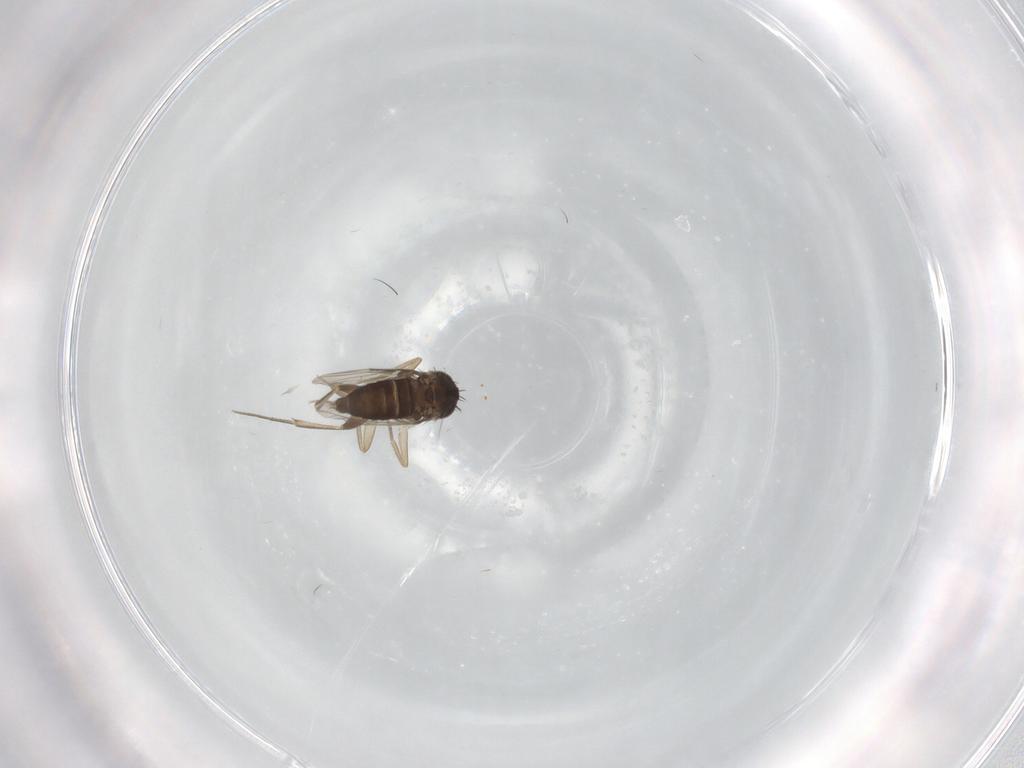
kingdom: Animalia
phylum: Arthropoda
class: Insecta
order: Diptera
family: Phoridae
